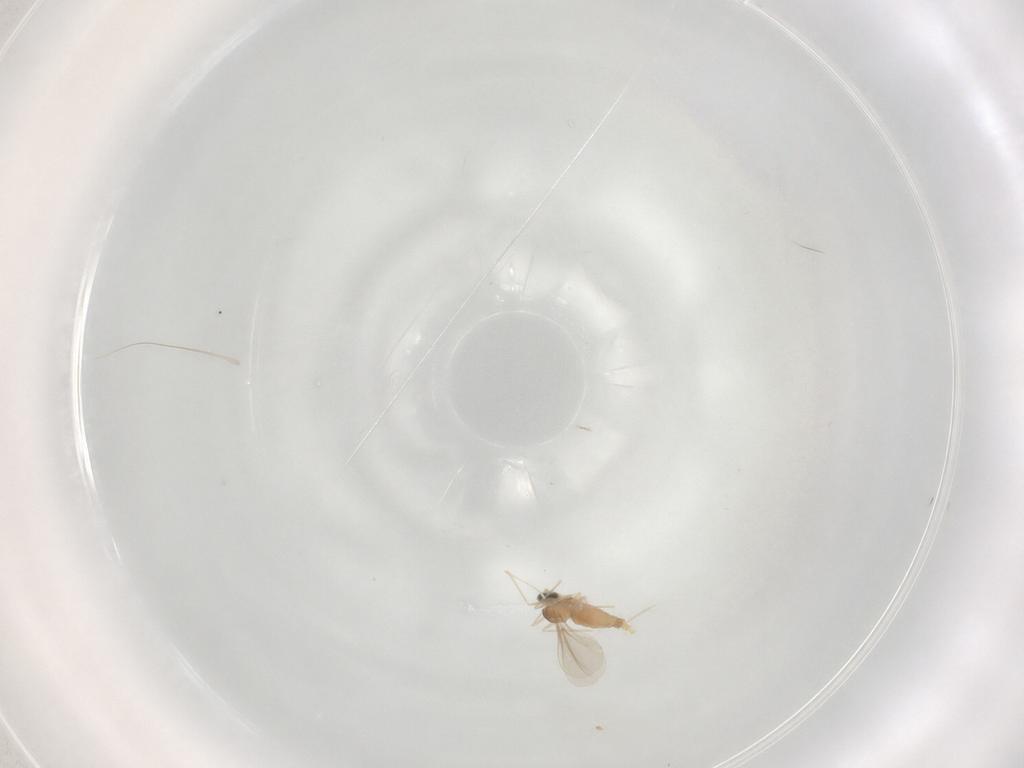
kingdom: Animalia
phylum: Arthropoda
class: Insecta
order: Diptera
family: Cecidomyiidae
